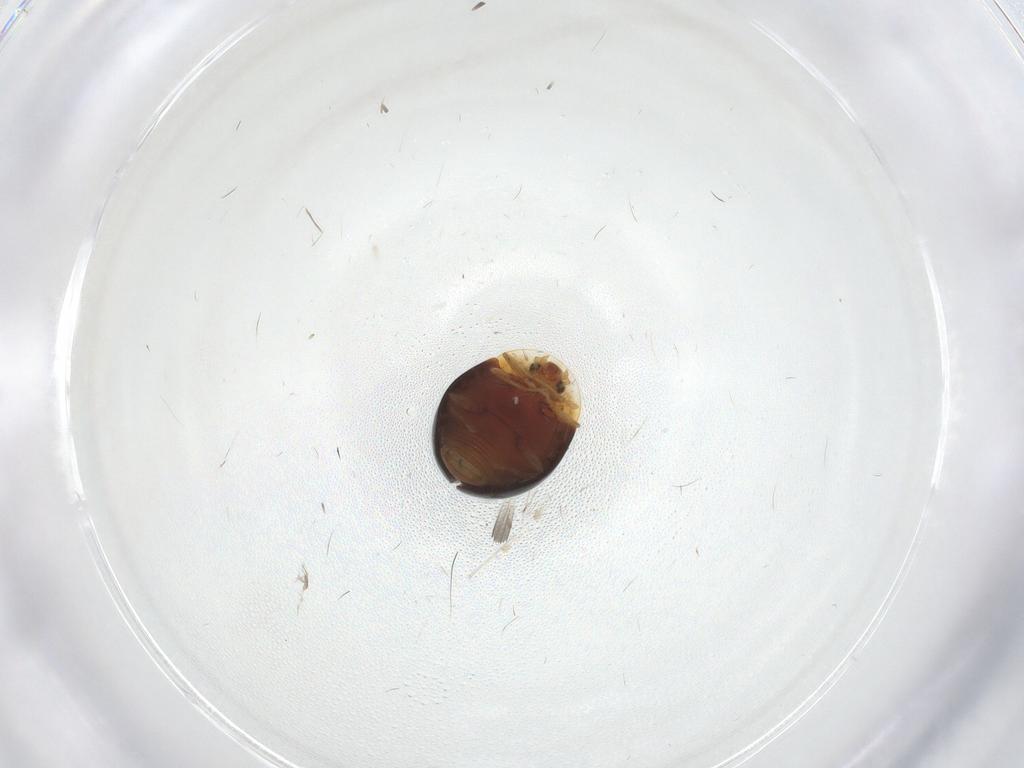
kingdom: Animalia
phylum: Arthropoda
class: Insecta
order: Coleoptera
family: Corylophidae
